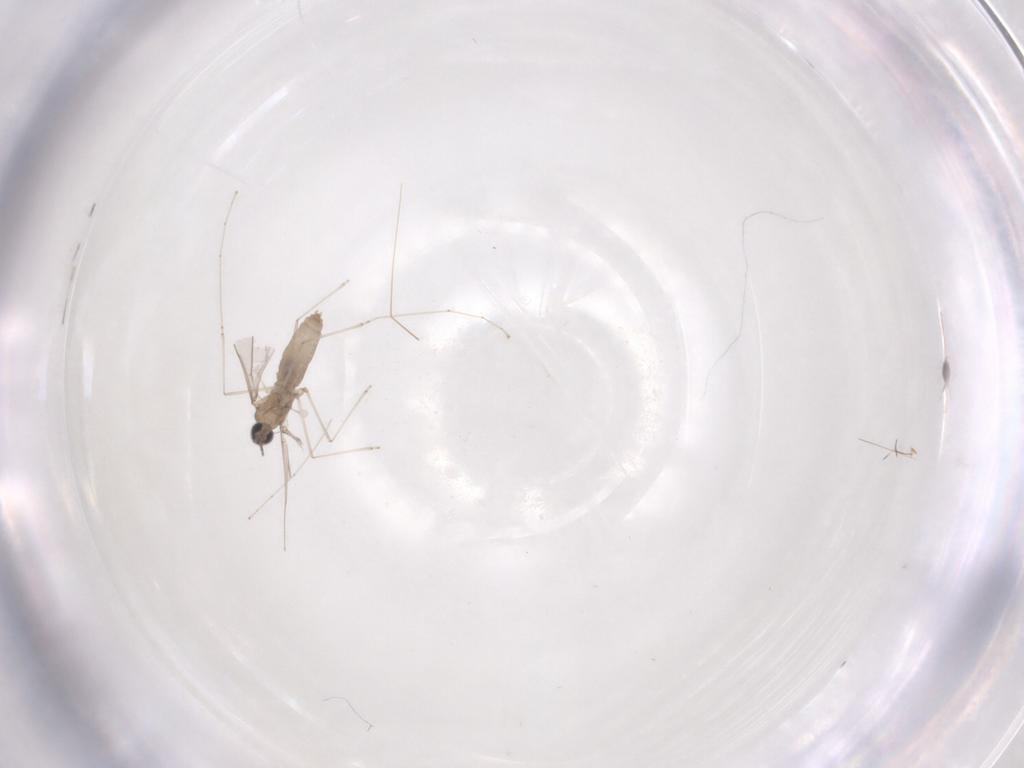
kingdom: Animalia
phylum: Arthropoda
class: Insecta
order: Diptera
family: Cecidomyiidae
